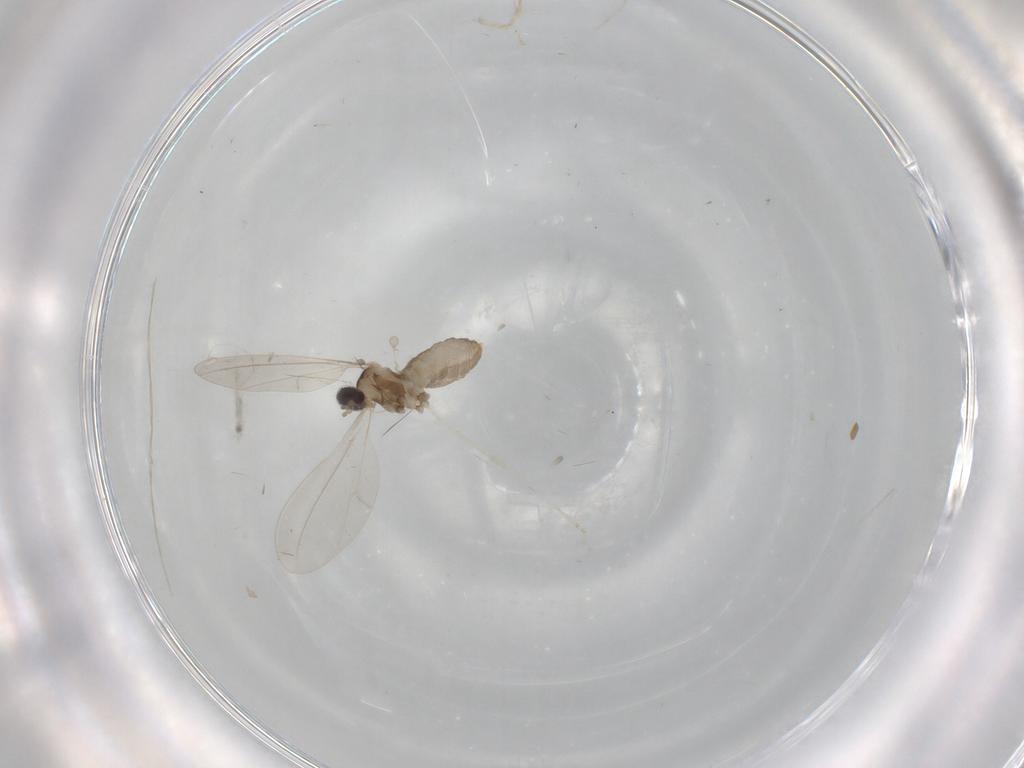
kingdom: Animalia
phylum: Arthropoda
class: Insecta
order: Diptera
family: Cecidomyiidae
